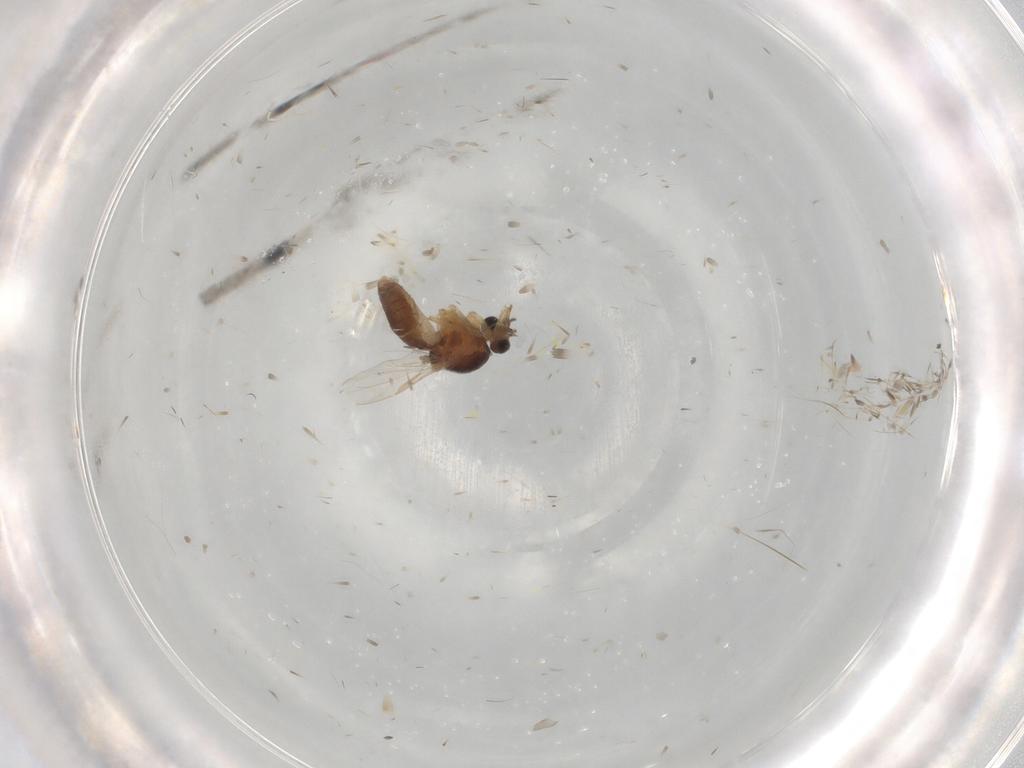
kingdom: Animalia
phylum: Arthropoda
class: Insecta
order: Diptera
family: Ceratopogonidae
